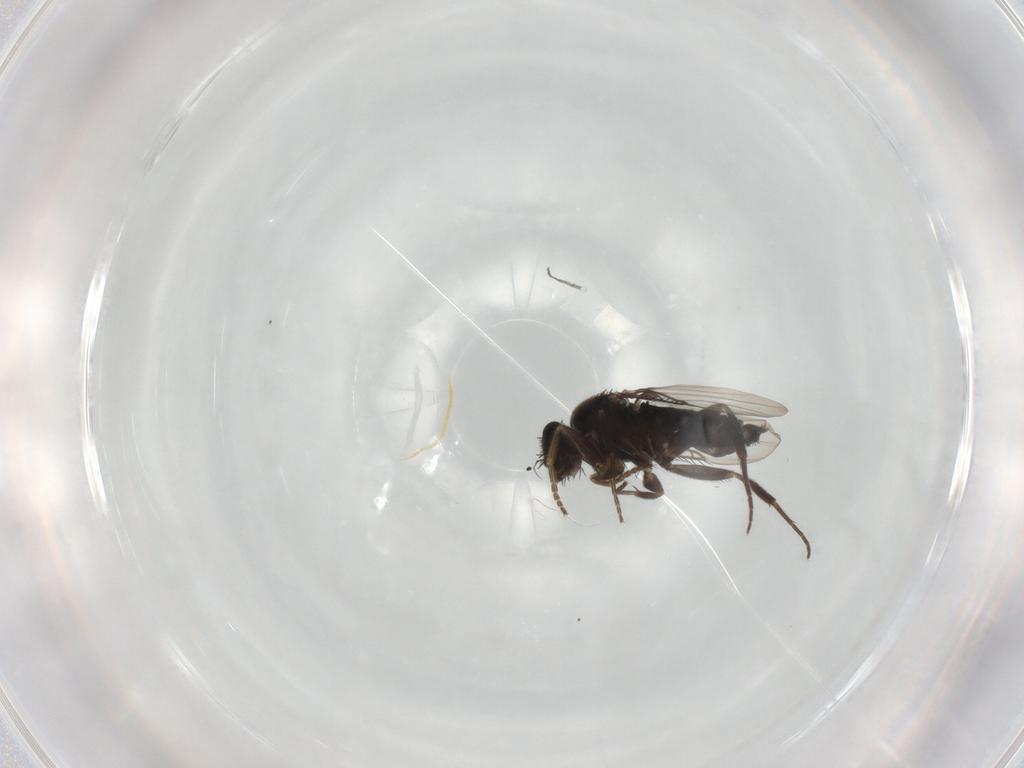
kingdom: Animalia
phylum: Arthropoda
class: Insecta
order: Diptera
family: Phoridae
